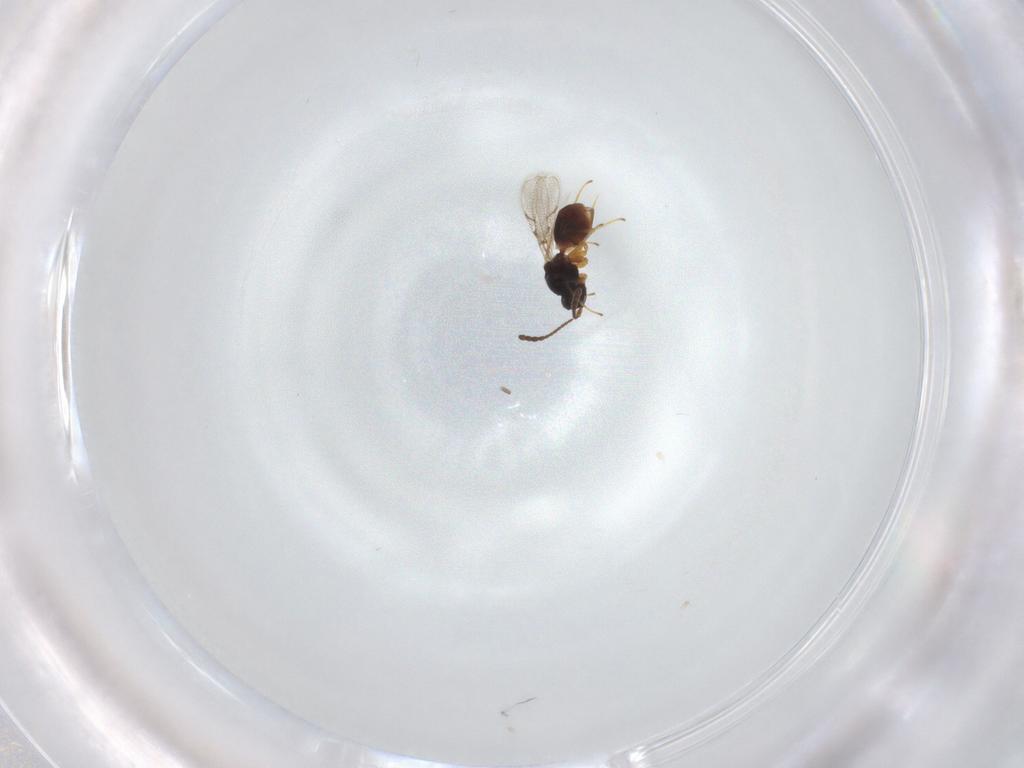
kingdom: Animalia
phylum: Arthropoda
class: Insecta
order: Hymenoptera
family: Figitidae
